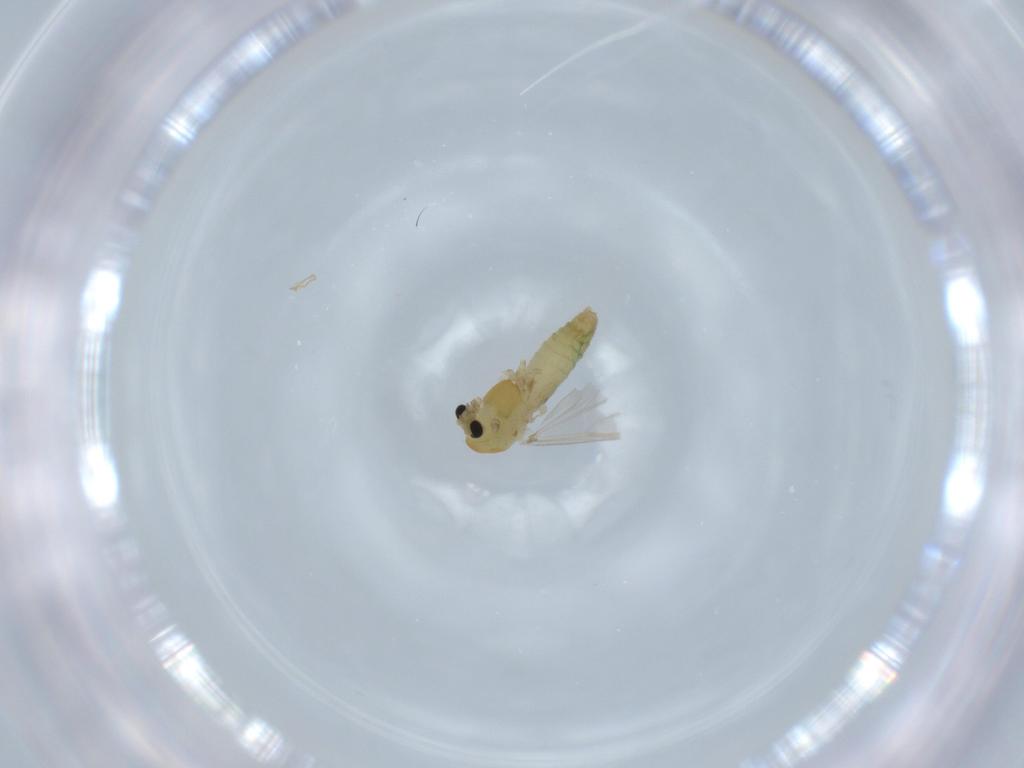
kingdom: Animalia
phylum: Arthropoda
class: Insecta
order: Diptera
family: Chironomidae
